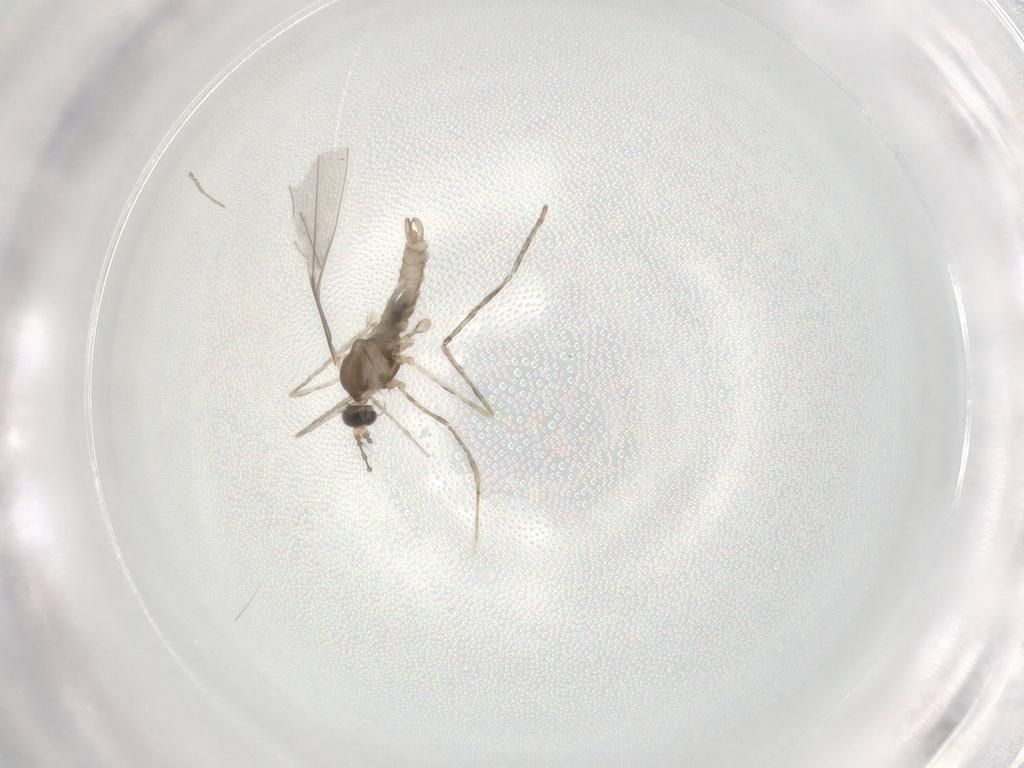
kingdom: Animalia
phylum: Arthropoda
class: Insecta
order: Diptera
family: Cecidomyiidae
